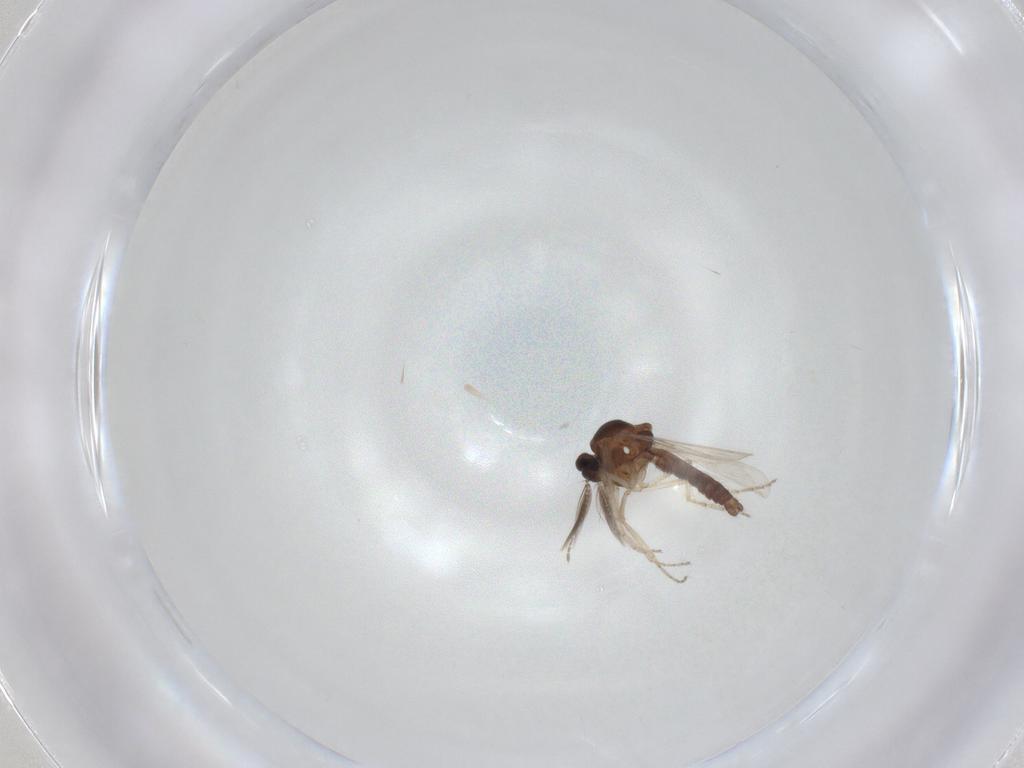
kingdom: Animalia
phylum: Arthropoda
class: Insecta
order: Diptera
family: Ceratopogonidae
